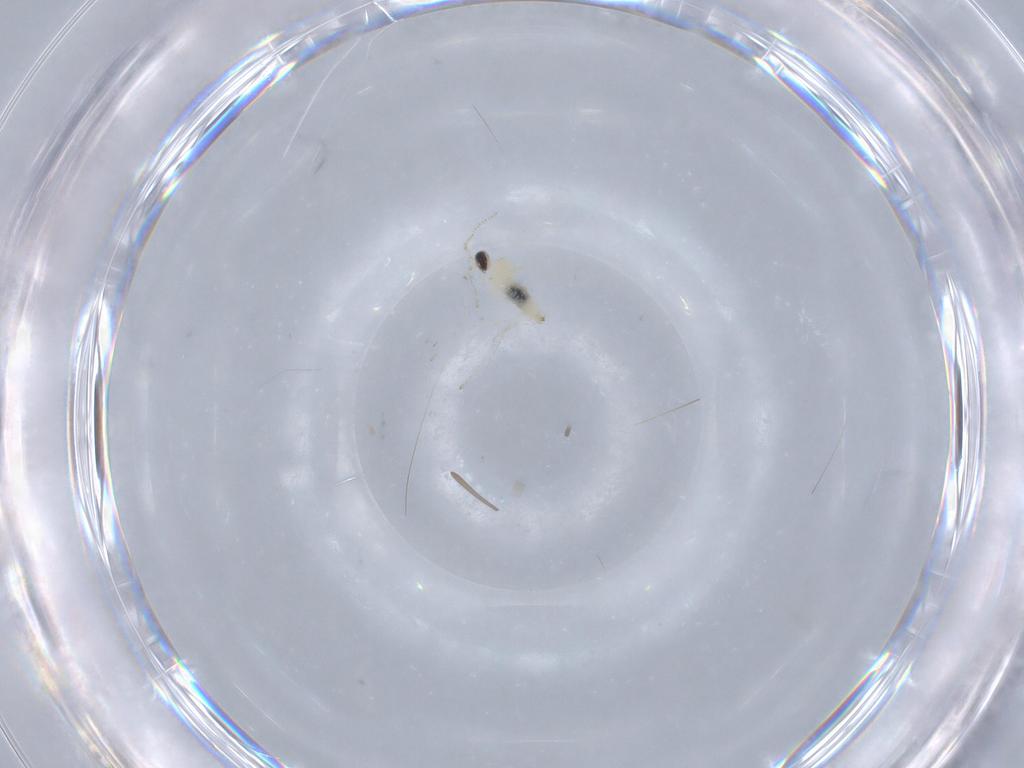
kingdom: Animalia
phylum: Arthropoda
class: Insecta
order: Diptera
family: Cecidomyiidae
